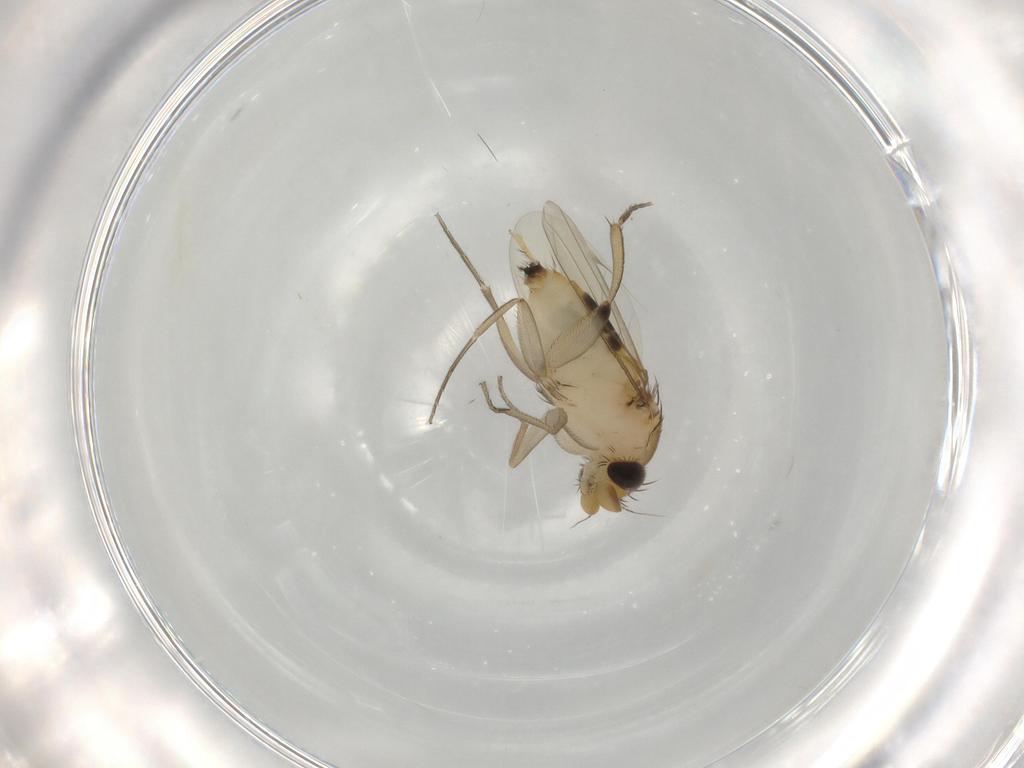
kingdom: Animalia
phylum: Arthropoda
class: Insecta
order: Diptera
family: Phoridae
